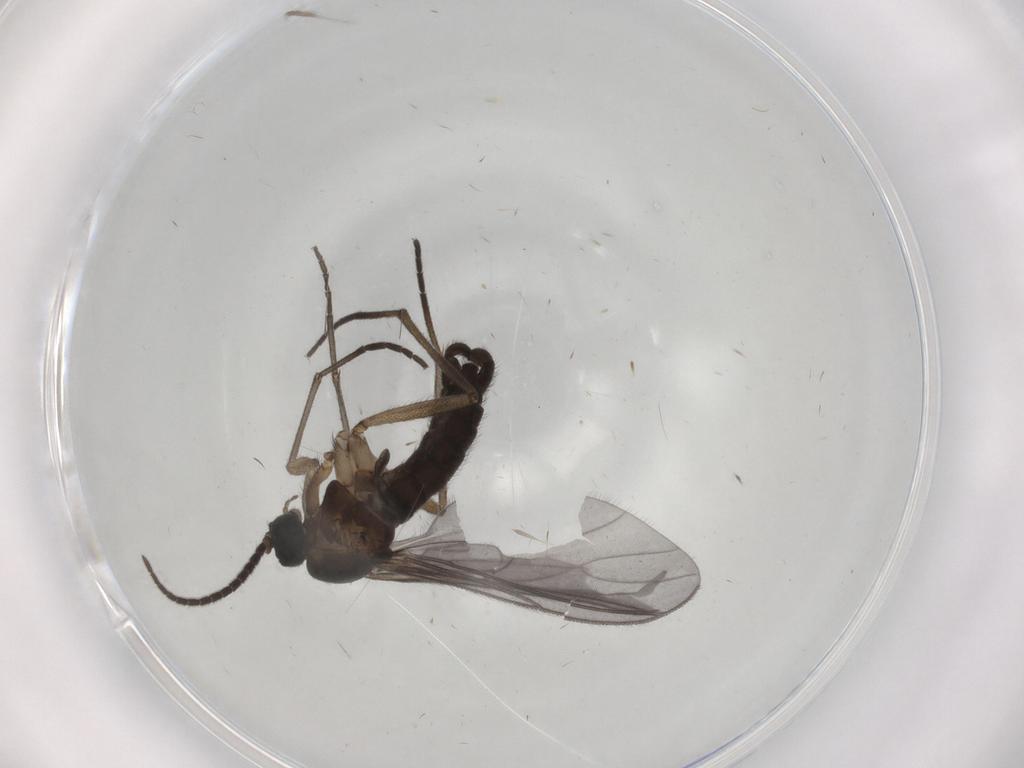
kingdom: Animalia
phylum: Arthropoda
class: Insecta
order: Diptera
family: Sciaridae
